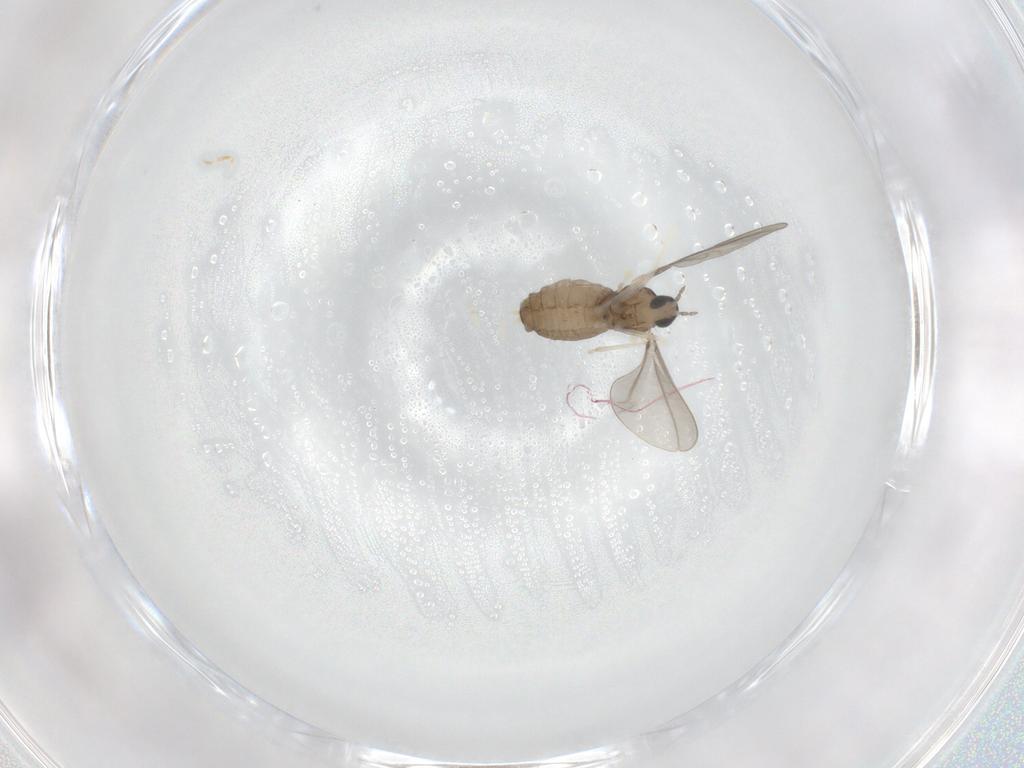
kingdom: Animalia
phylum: Arthropoda
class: Insecta
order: Diptera
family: Cecidomyiidae
